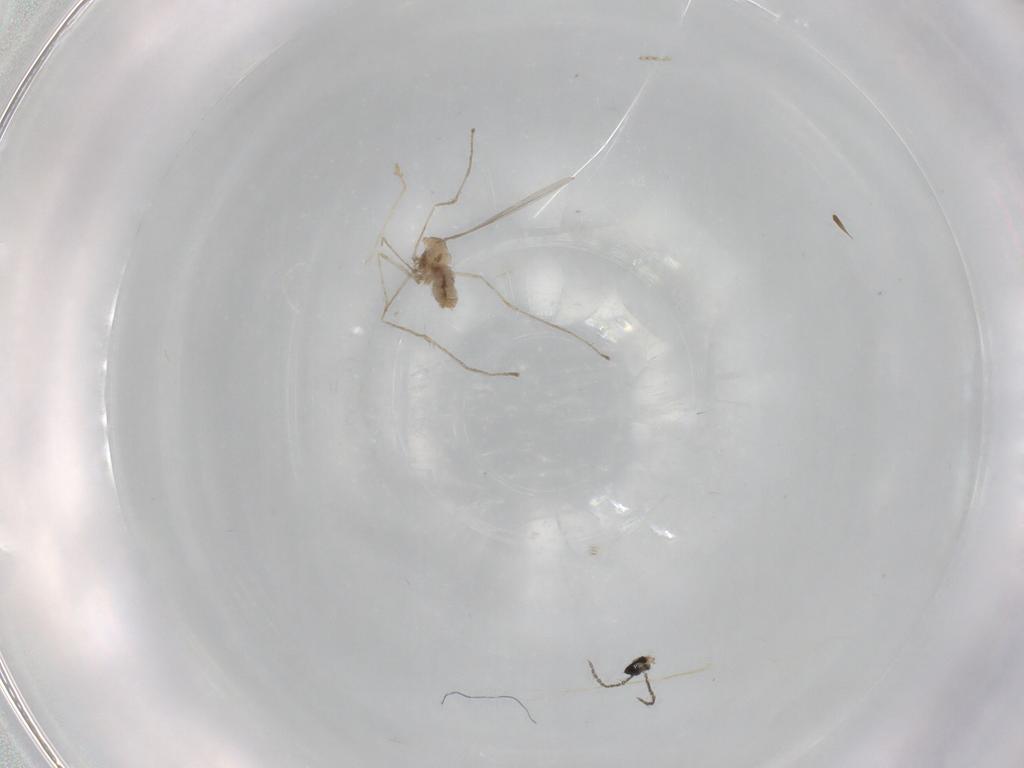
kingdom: Animalia
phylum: Arthropoda
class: Insecta
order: Diptera
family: Cecidomyiidae
